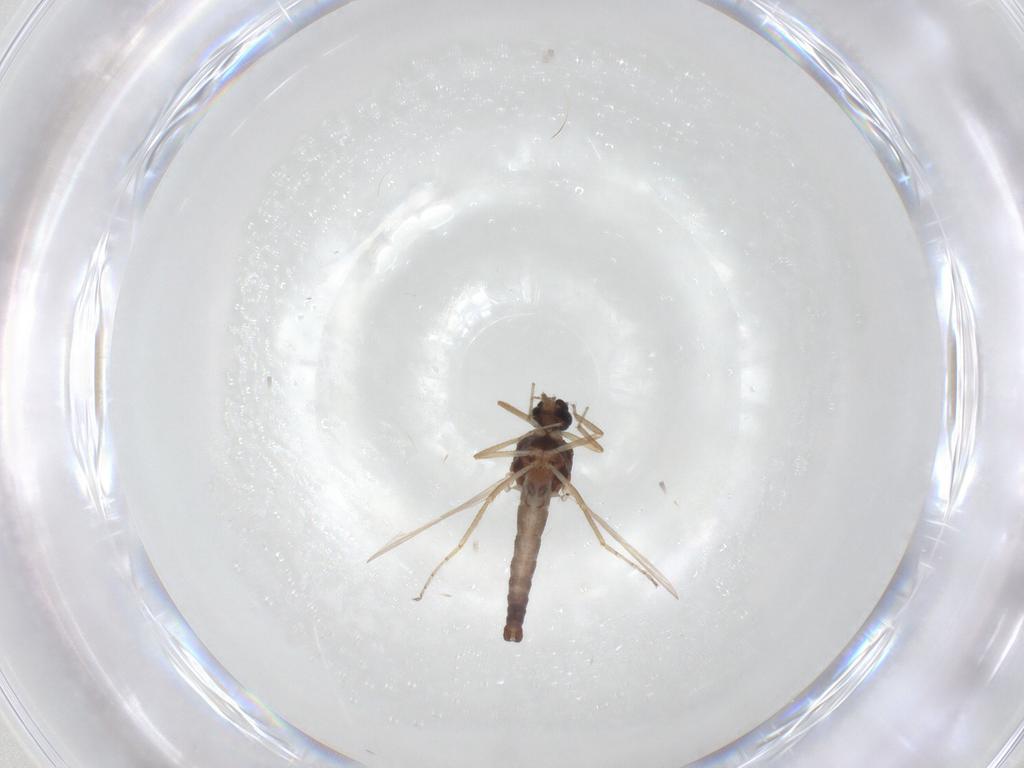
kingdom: Animalia
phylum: Arthropoda
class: Insecta
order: Diptera
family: Ceratopogonidae
